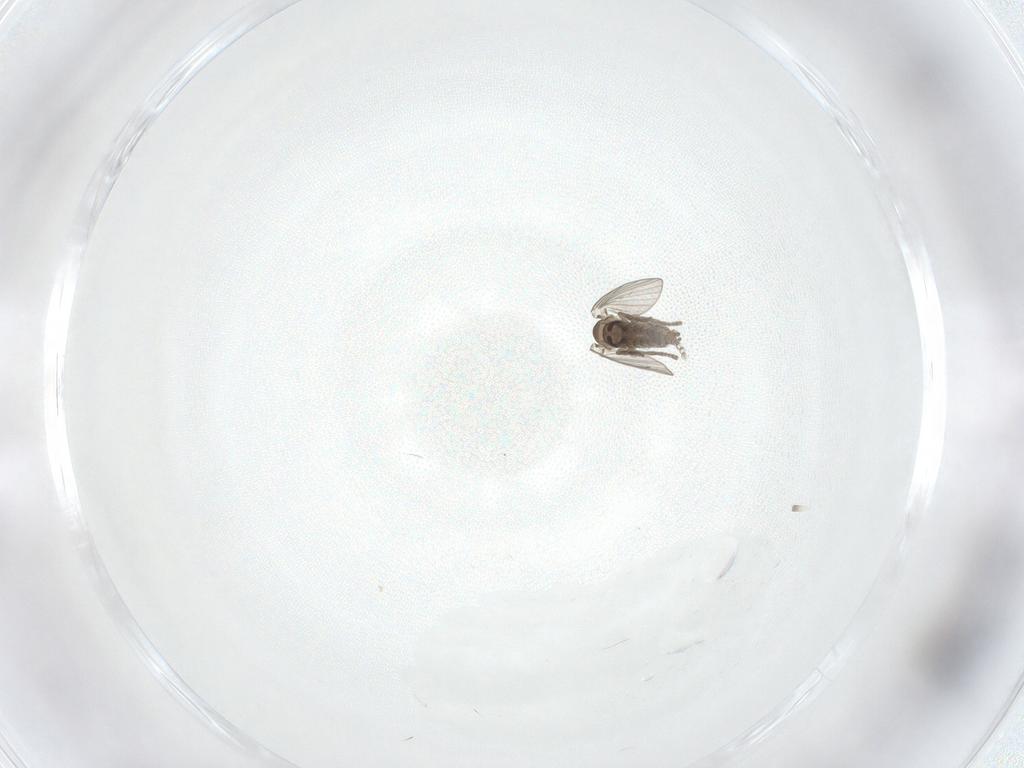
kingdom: Animalia
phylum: Arthropoda
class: Insecta
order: Diptera
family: Psychodidae
